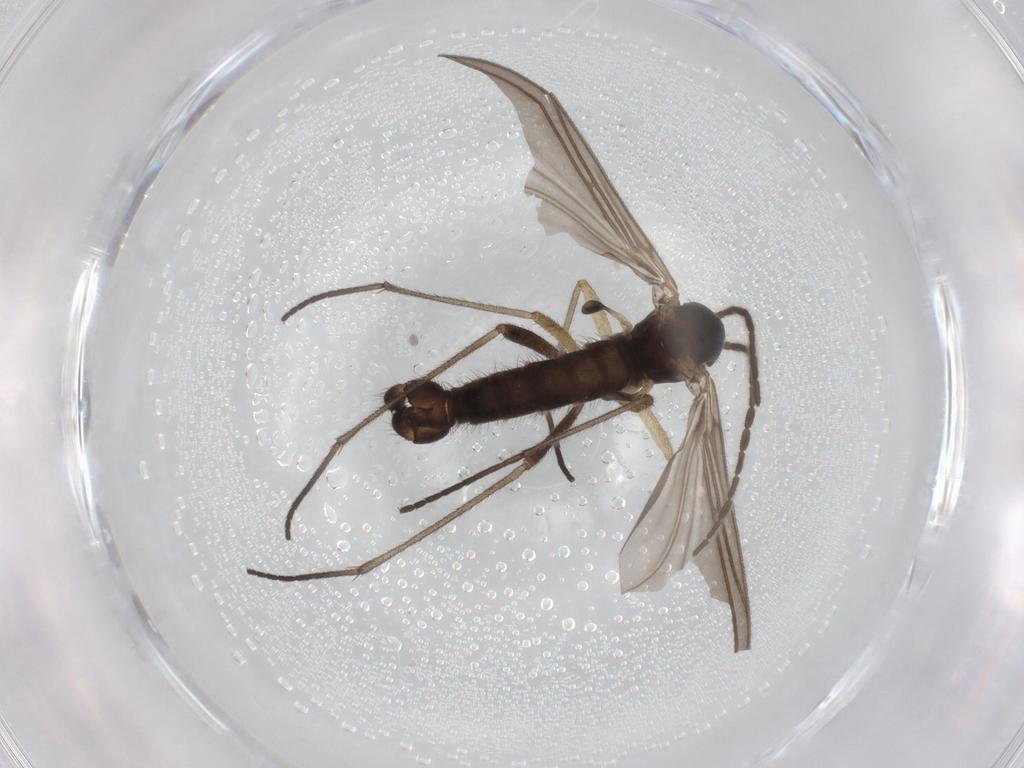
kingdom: Animalia
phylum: Arthropoda
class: Insecta
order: Diptera
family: Sciaridae
